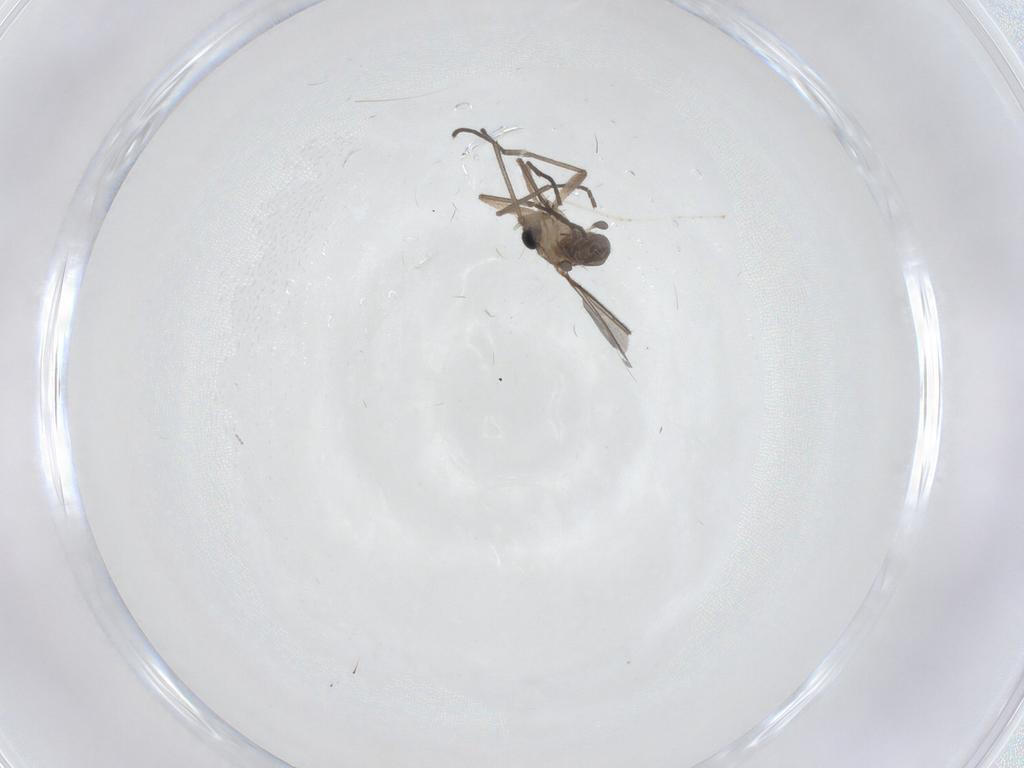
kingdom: Animalia
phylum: Arthropoda
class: Insecta
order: Diptera
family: Sciaridae
